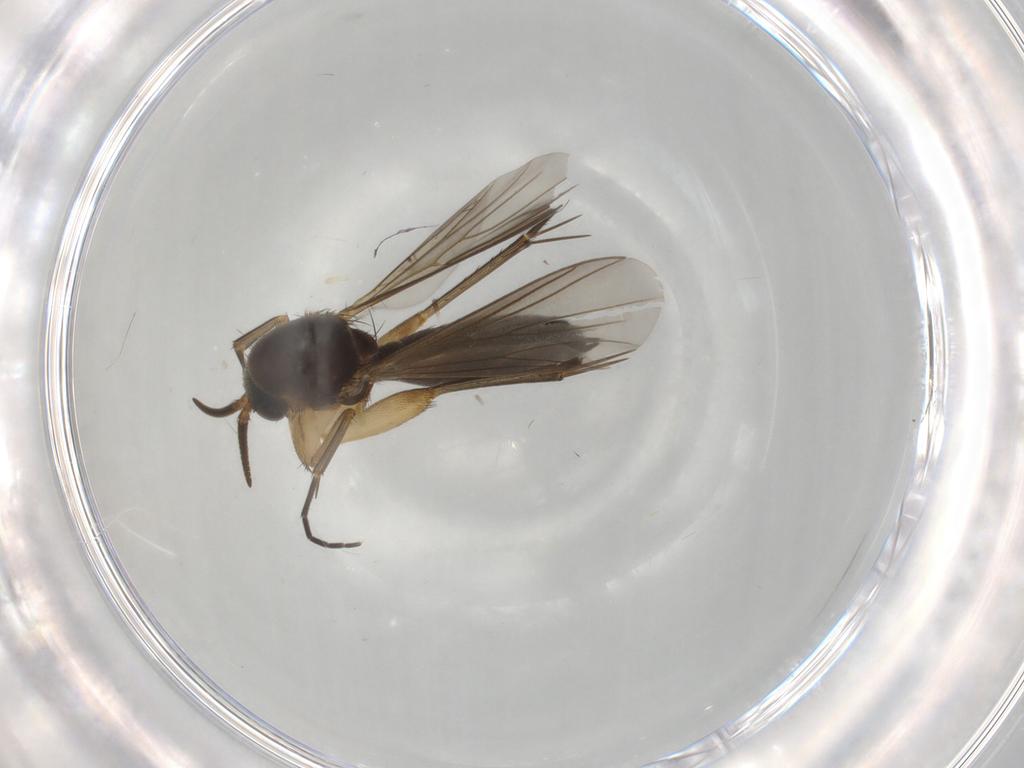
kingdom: Animalia
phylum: Arthropoda
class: Insecta
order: Diptera
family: Mycetophilidae
